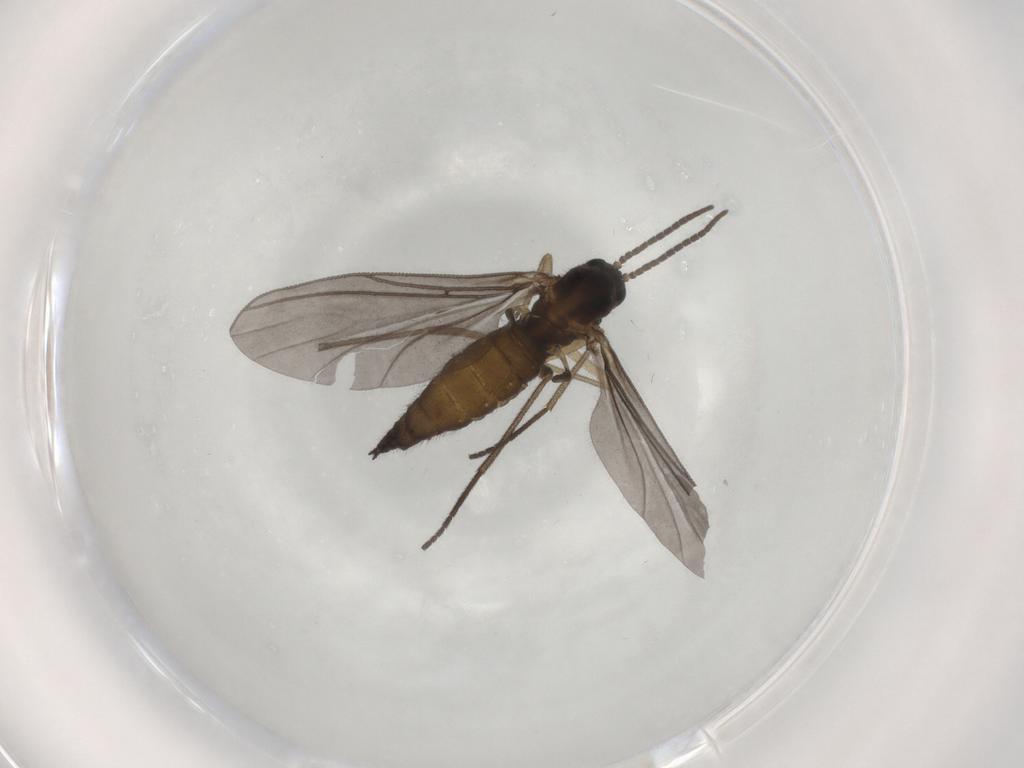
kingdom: Animalia
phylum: Arthropoda
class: Insecta
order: Diptera
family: Sciaridae
